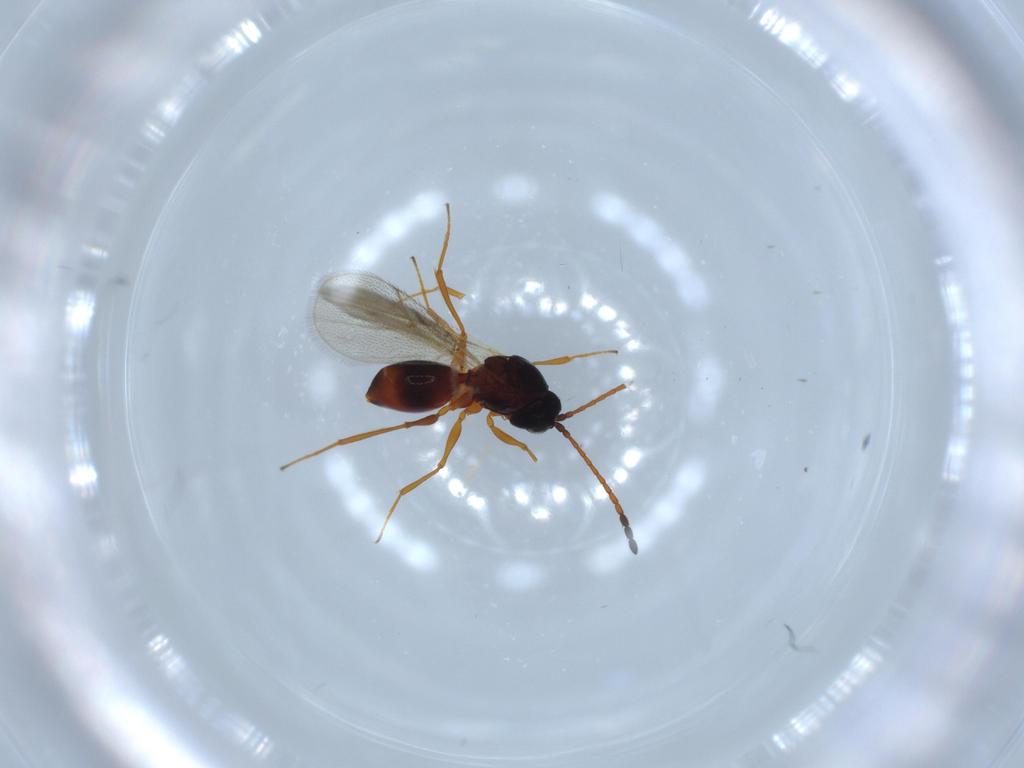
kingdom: Animalia
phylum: Arthropoda
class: Insecta
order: Hymenoptera
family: Figitidae
